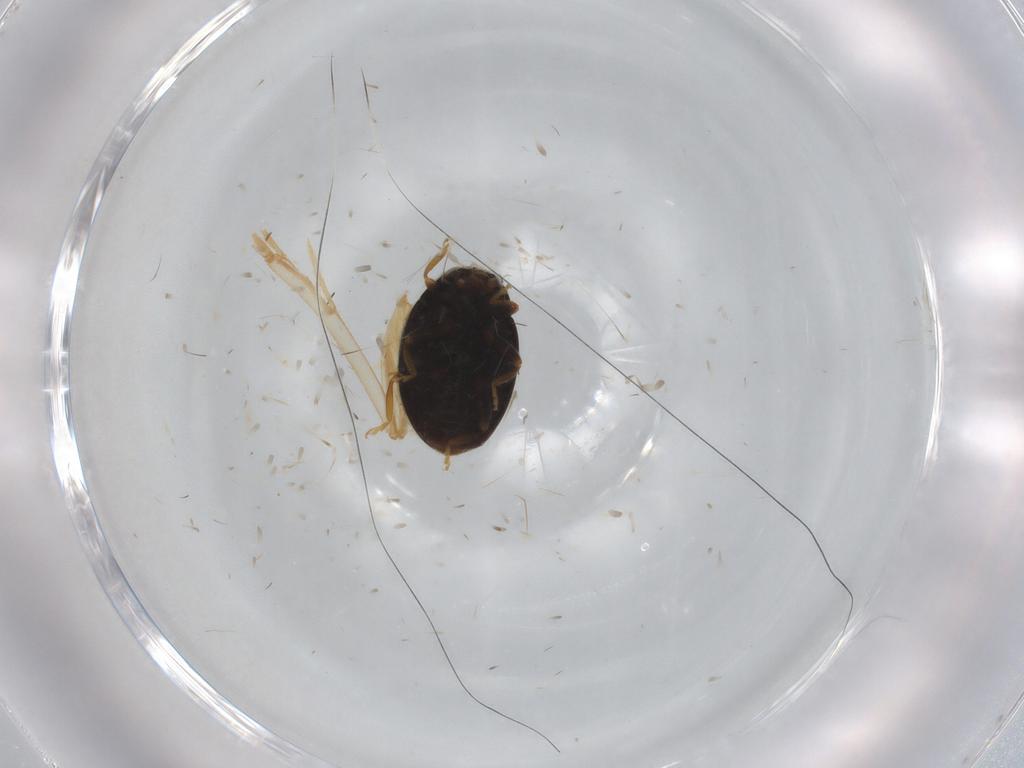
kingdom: Animalia
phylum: Arthropoda
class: Insecta
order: Coleoptera
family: Coccinellidae
